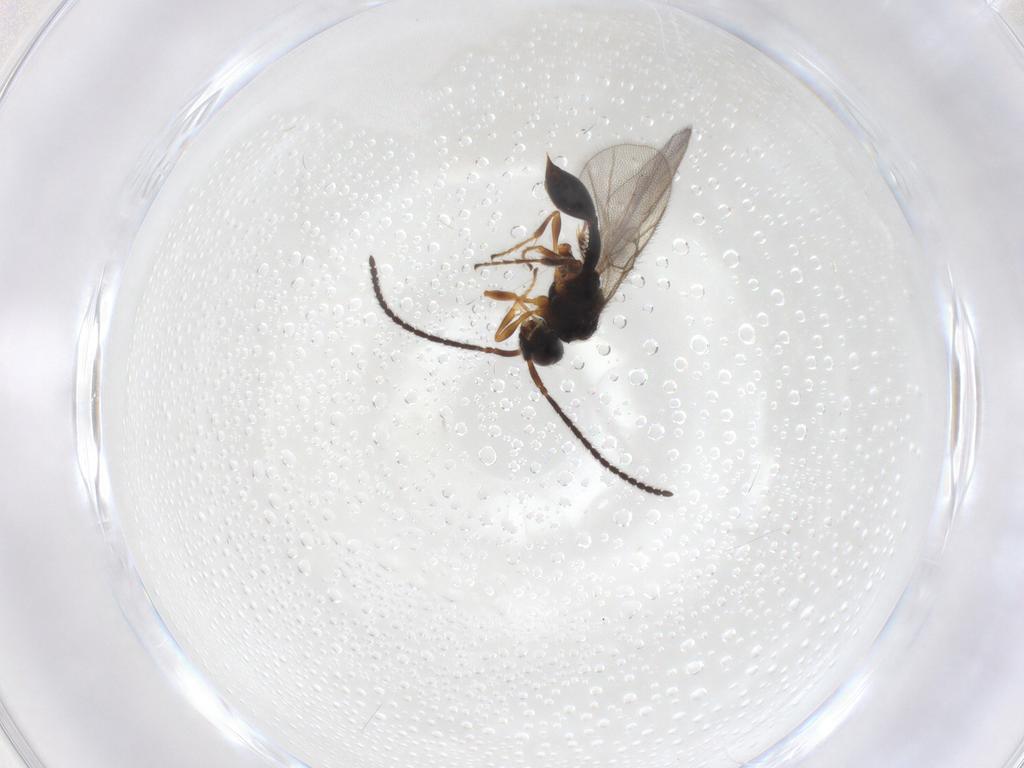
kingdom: Animalia
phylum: Arthropoda
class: Insecta
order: Hymenoptera
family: Diapriidae
